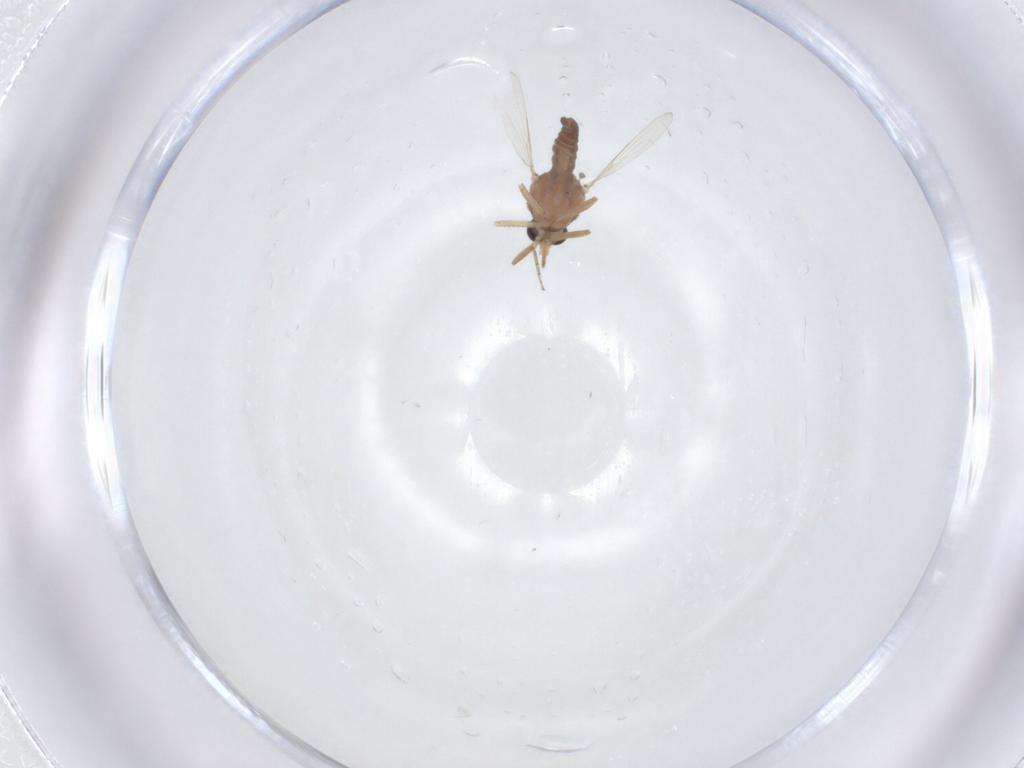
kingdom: Animalia
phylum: Arthropoda
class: Insecta
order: Diptera
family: Ceratopogonidae
